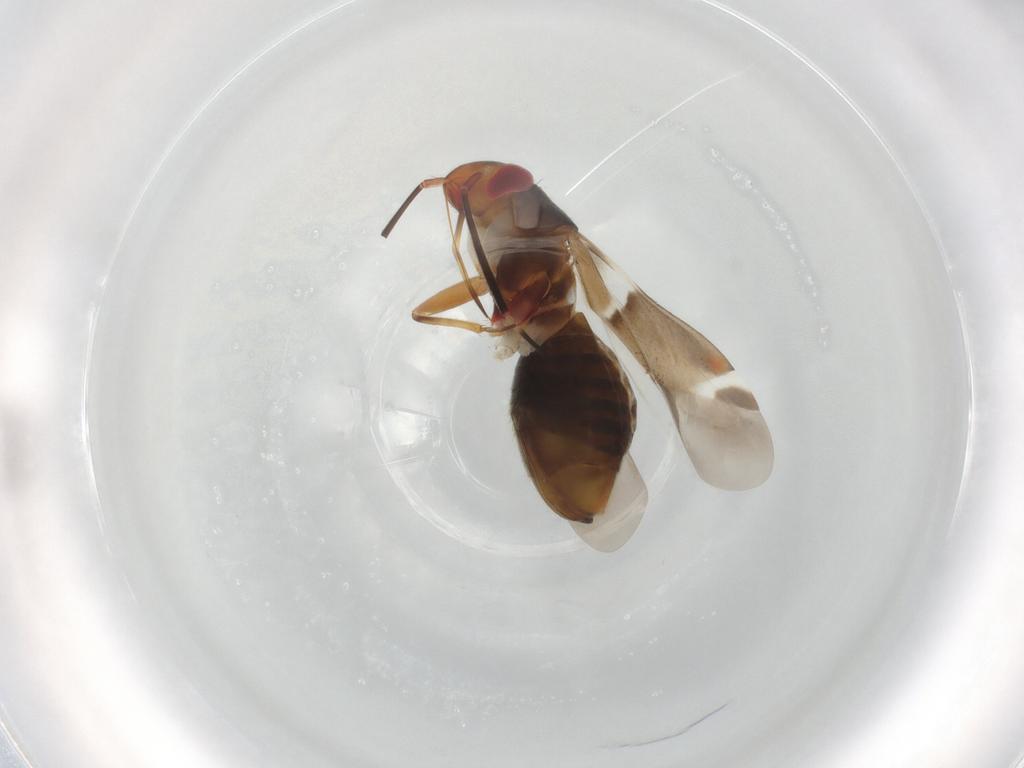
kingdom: Animalia
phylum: Arthropoda
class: Insecta
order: Hemiptera
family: Miridae
